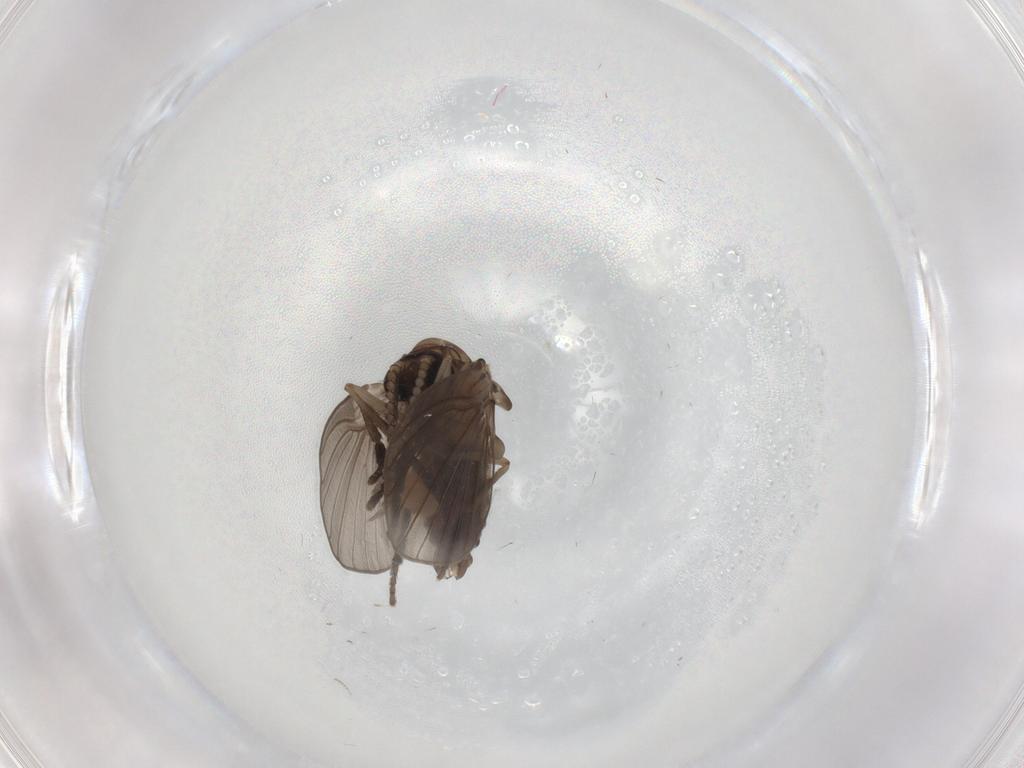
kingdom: Animalia
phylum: Arthropoda
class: Insecta
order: Diptera
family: Psychodidae
